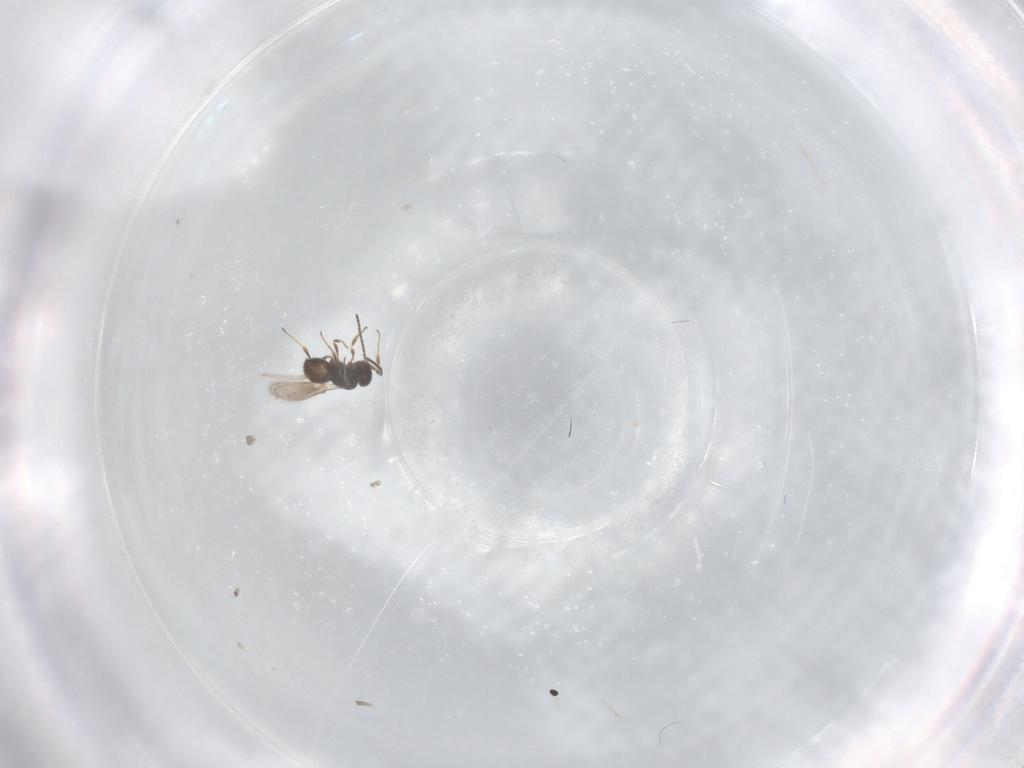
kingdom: Animalia
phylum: Arthropoda
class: Insecta
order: Hymenoptera
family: Scelionidae
